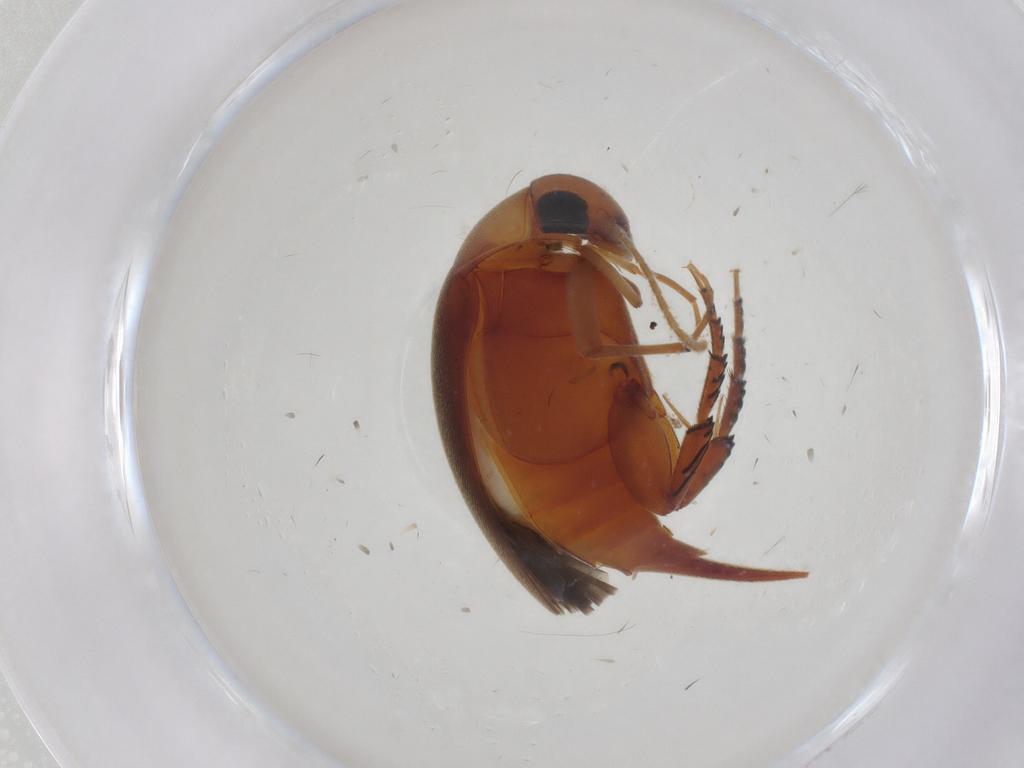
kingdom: Animalia
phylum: Arthropoda
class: Insecta
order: Coleoptera
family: Mordellidae
